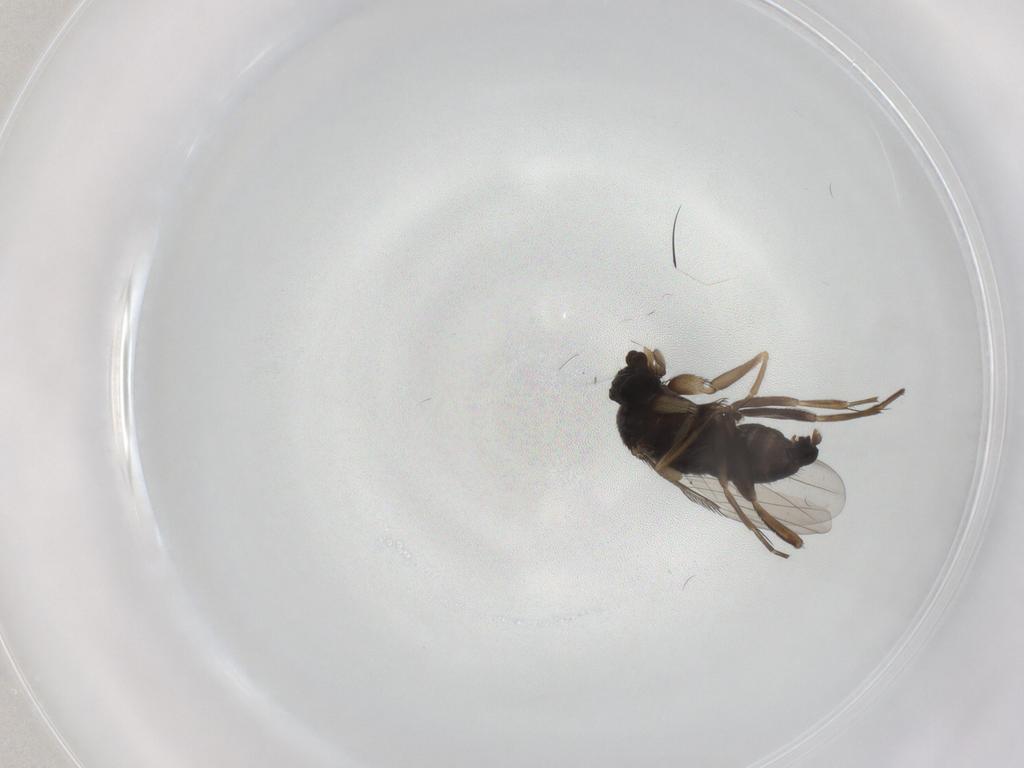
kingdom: Animalia
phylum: Arthropoda
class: Insecta
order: Diptera
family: Phoridae
